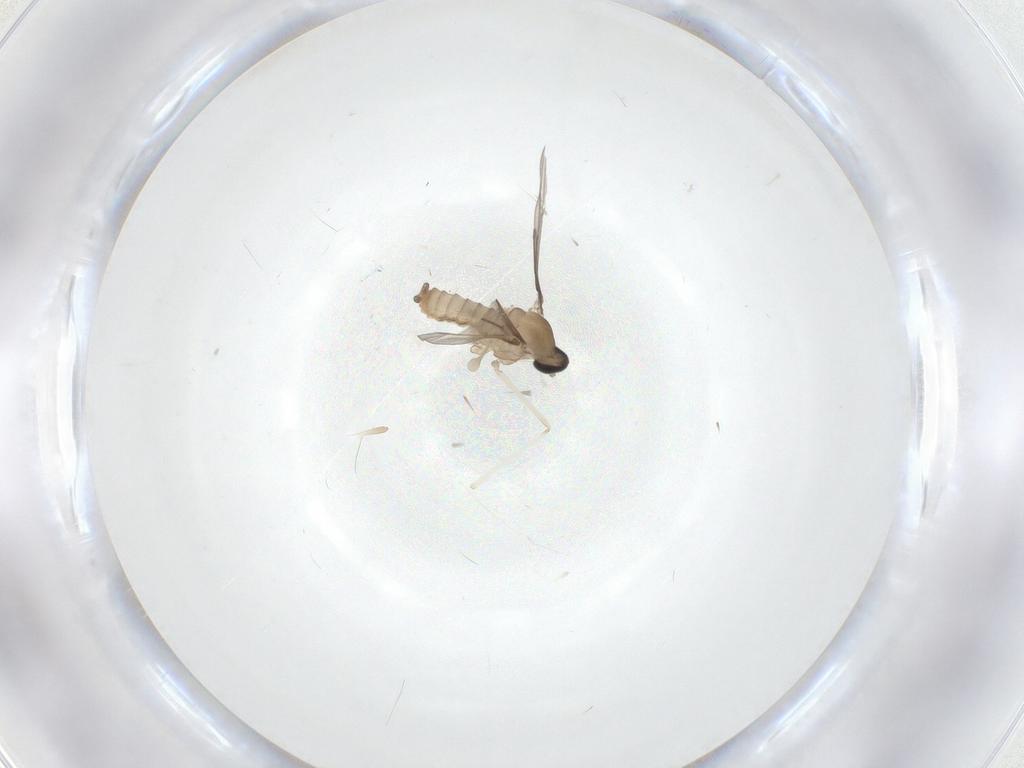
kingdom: Animalia
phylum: Arthropoda
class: Insecta
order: Diptera
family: Cecidomyiidae
